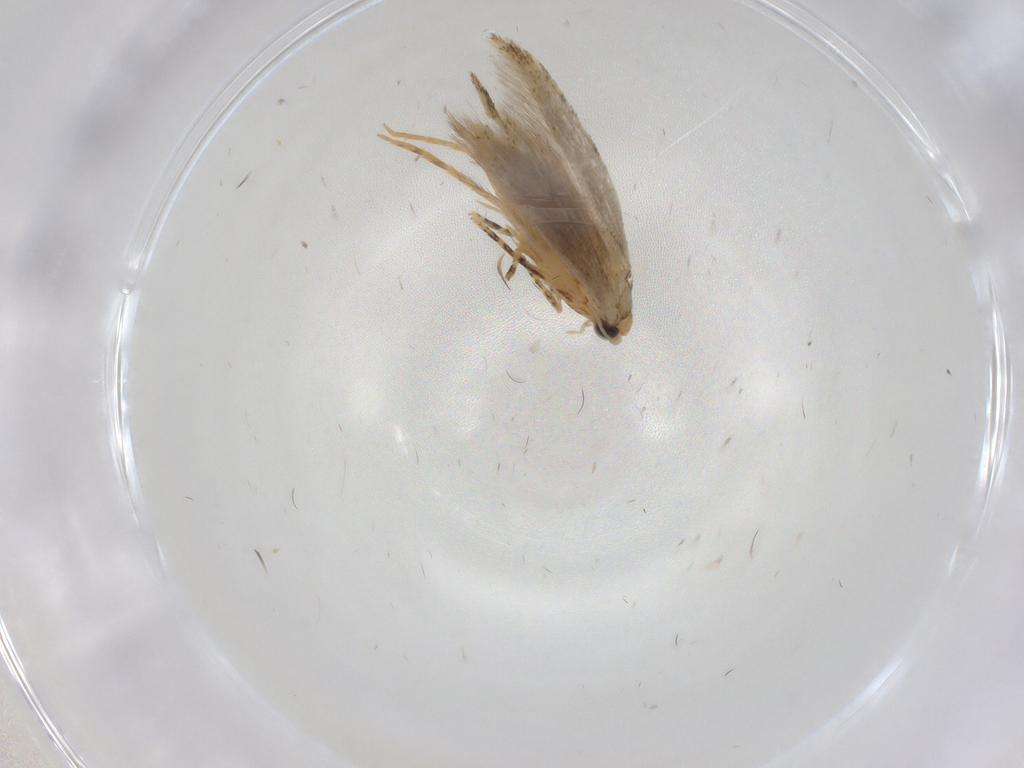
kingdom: Animalia
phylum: Arthropoda
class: Insecta
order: Lepidoptera
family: Tineidae
